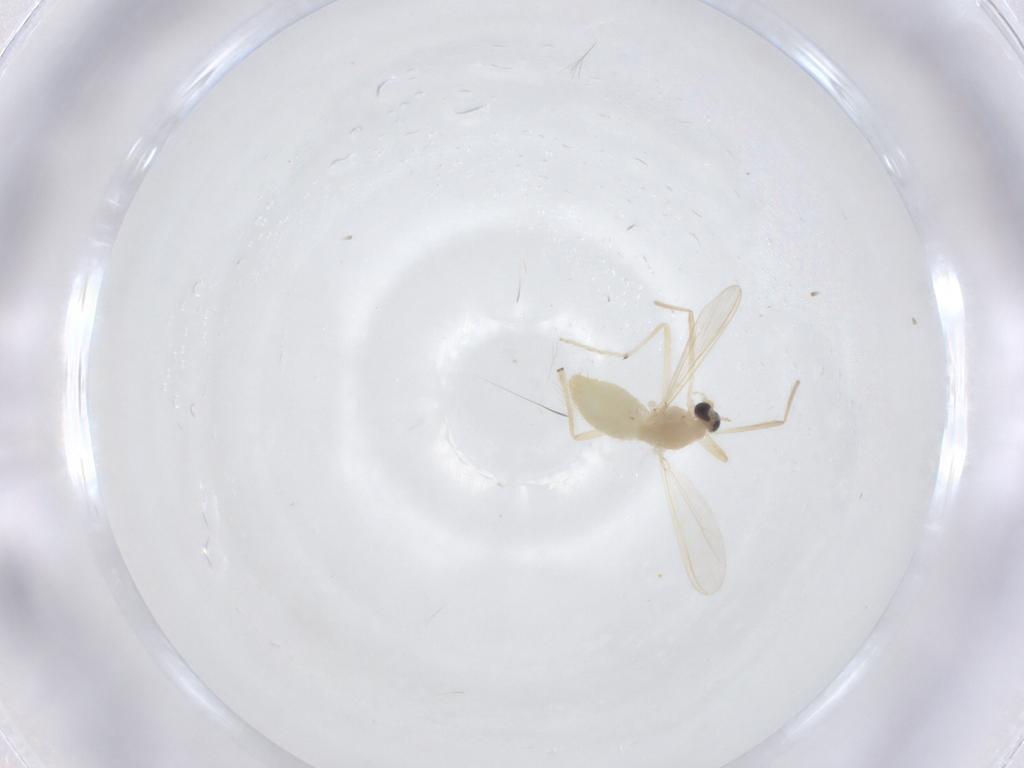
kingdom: Animalia
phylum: Arthropoda
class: Insecta
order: Diptera
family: Chironomidae
